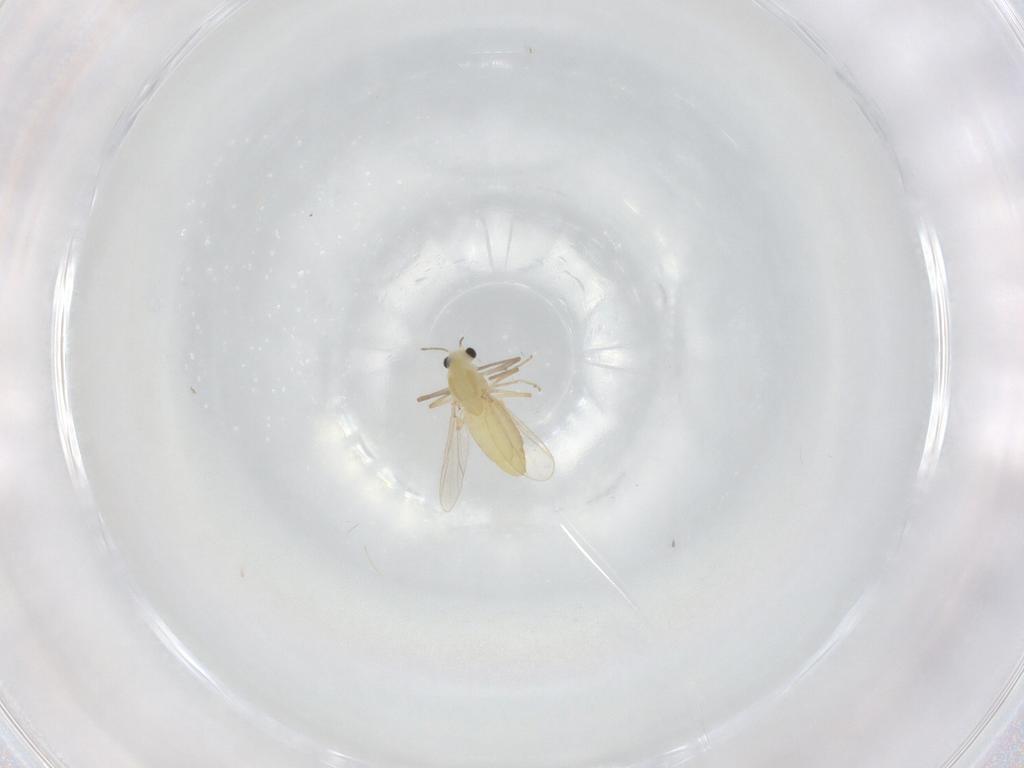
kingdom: Animalia
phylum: Arthropoda
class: Insecta
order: Diptera
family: Chironomidae
